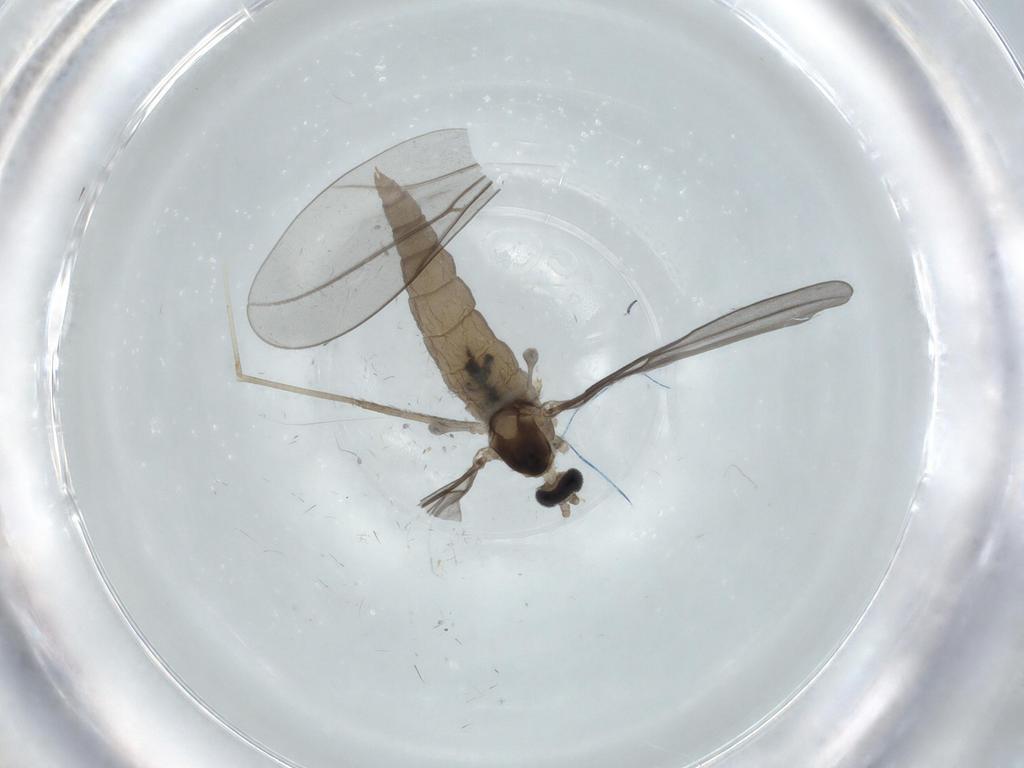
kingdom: Animalia
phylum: Arthropoda
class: Insecta
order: Diptera
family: Cecidomyiidae
